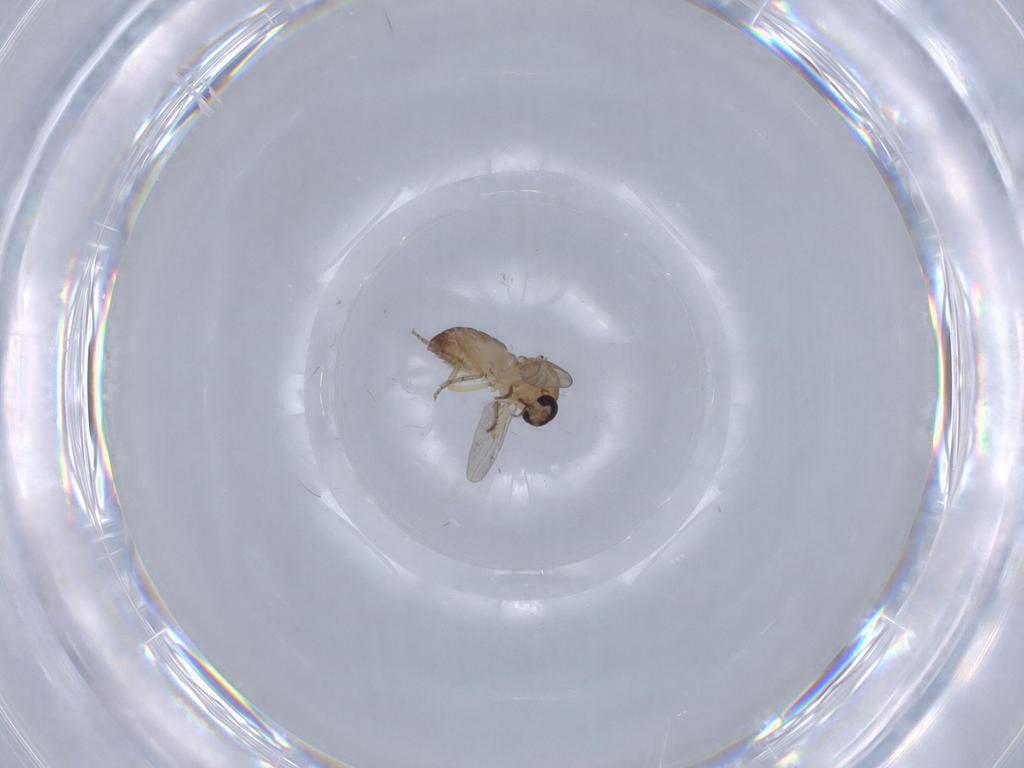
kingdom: Animalia
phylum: Arthropoda
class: Insecta
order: Diptera
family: Ceratopogonidae
